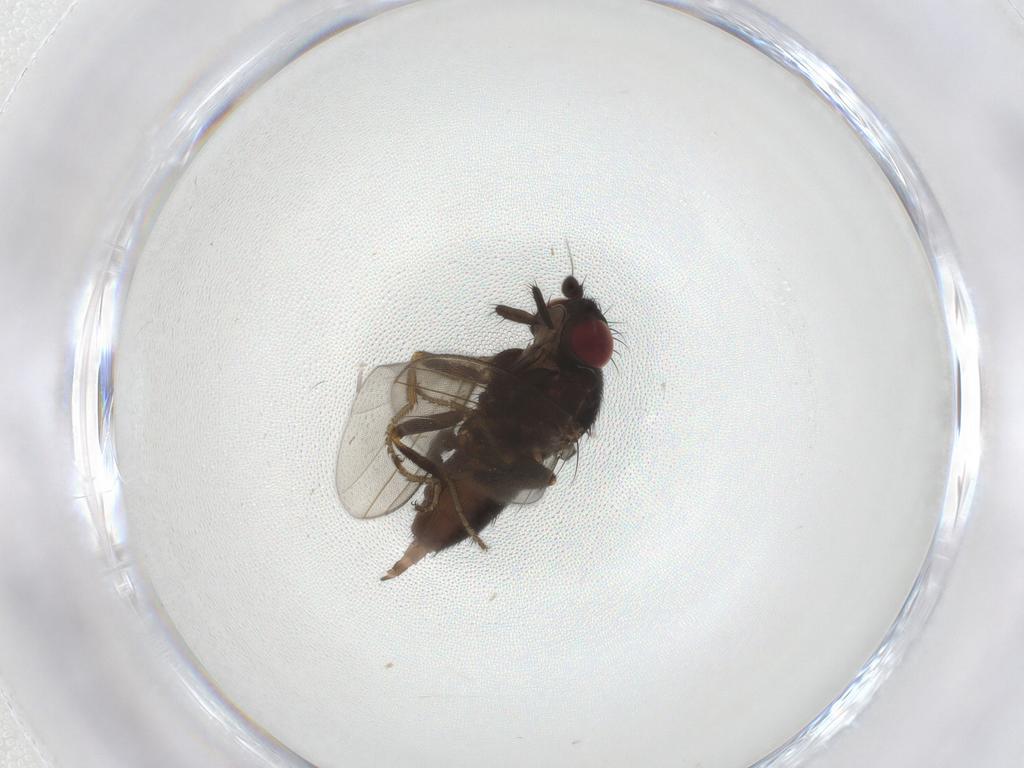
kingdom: Animalia
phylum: Arthropoda
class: Insecta
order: Diptera
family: Milichiidae
